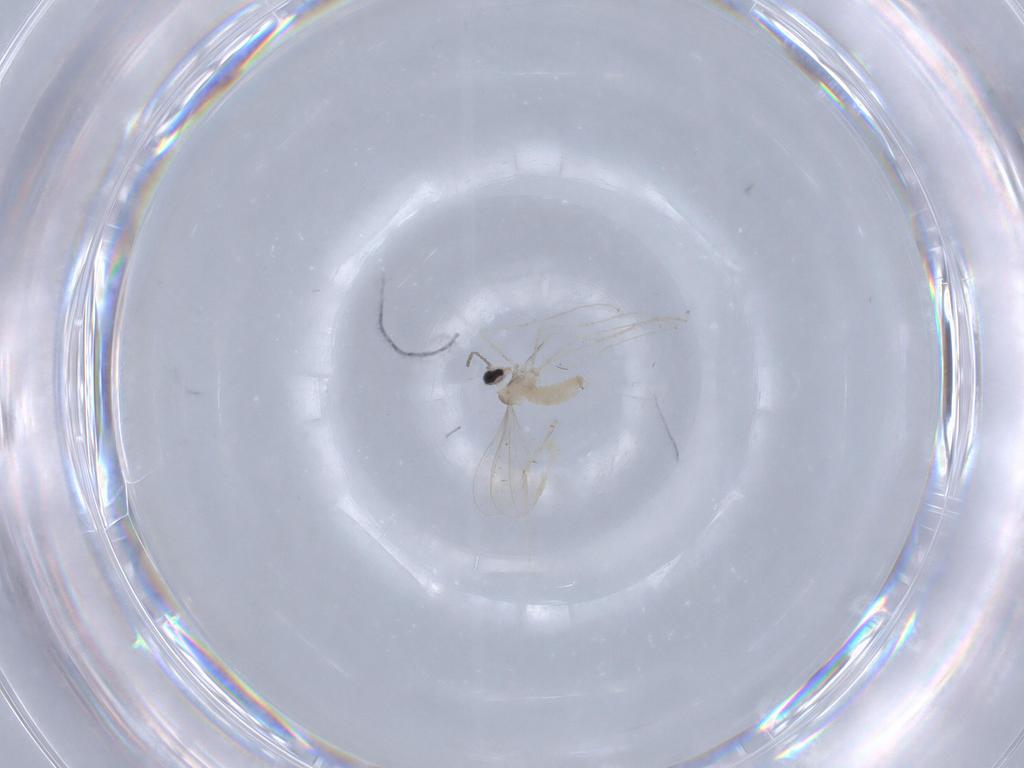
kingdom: Animalia
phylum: Arthropoda
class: Insecta
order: Diptera
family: Cecidomyiidae
